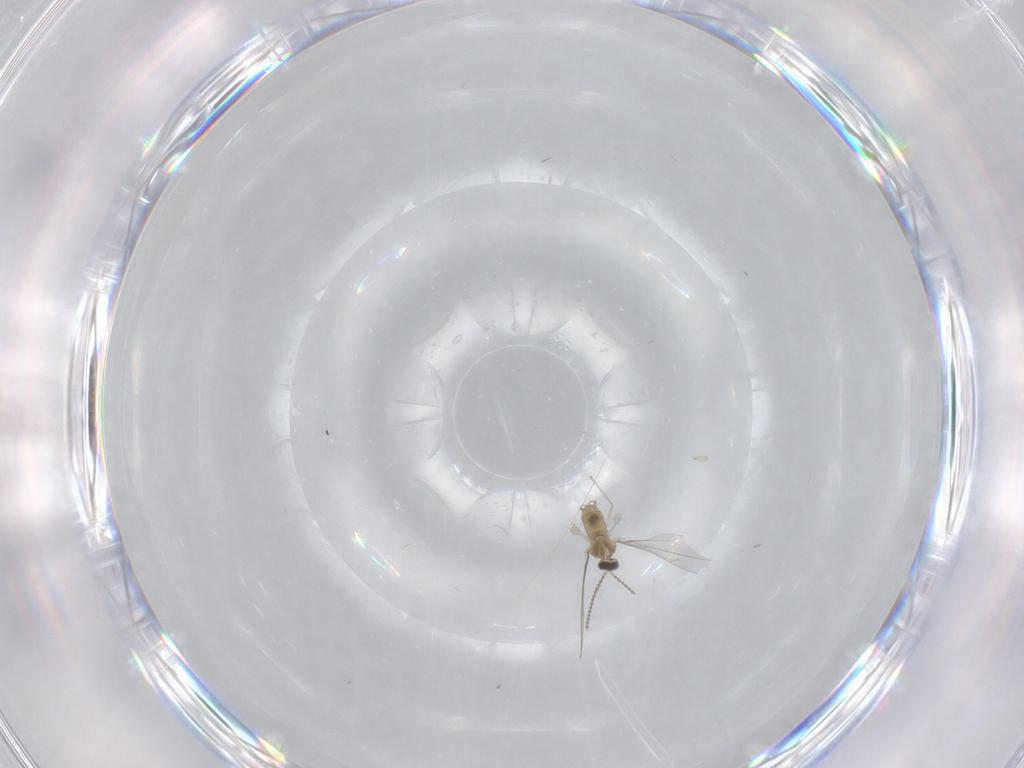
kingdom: Animalia
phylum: Arthropoda
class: Insecta
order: Diptera
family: Cecidomyiidae
